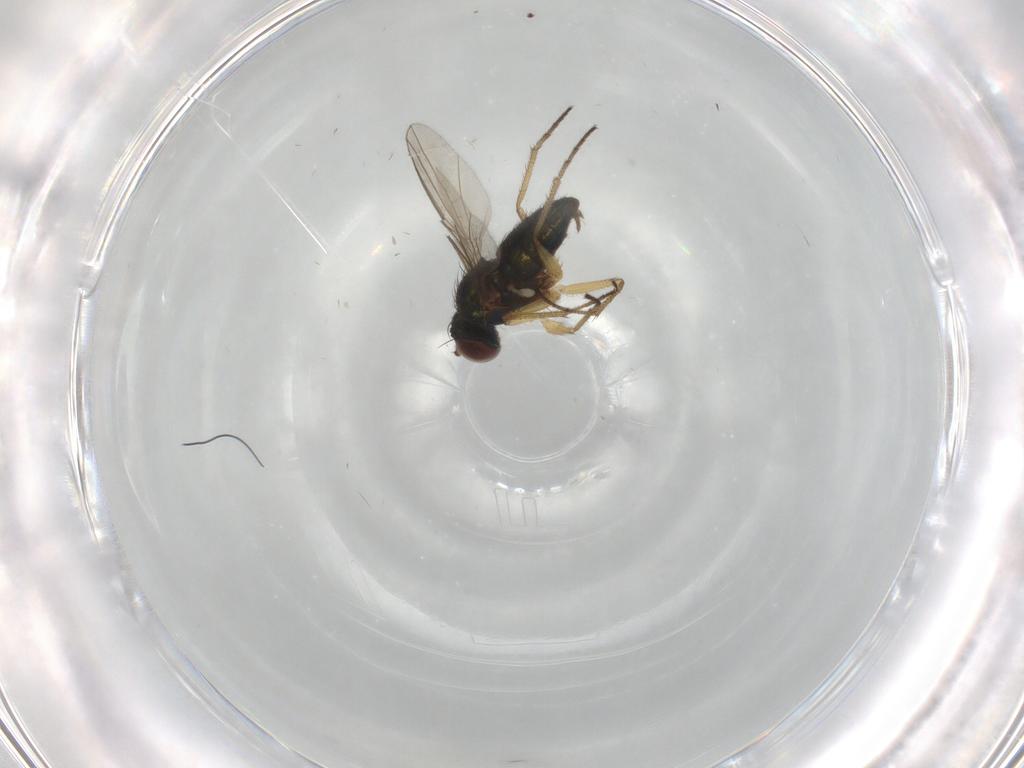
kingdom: Animalia
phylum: Arthropoda
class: Insecta
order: Diptera
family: Dolichopodidae
